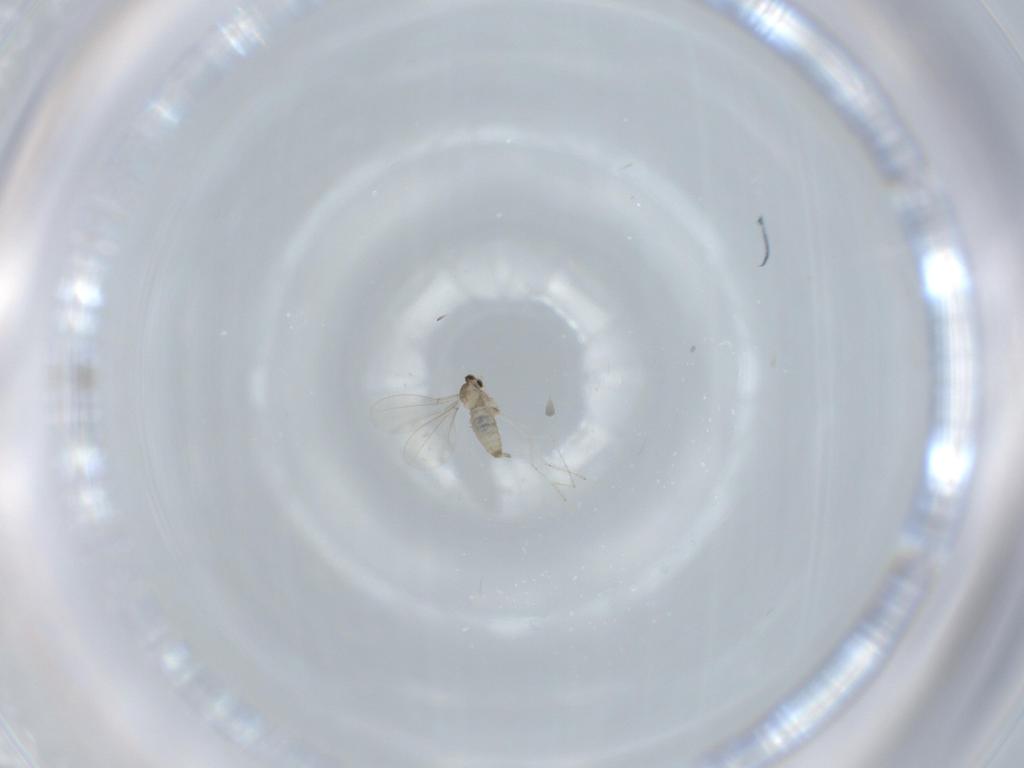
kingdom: Animalia
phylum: Arthropoda
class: Insecta
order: Diptera
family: Cecidomyiidae
